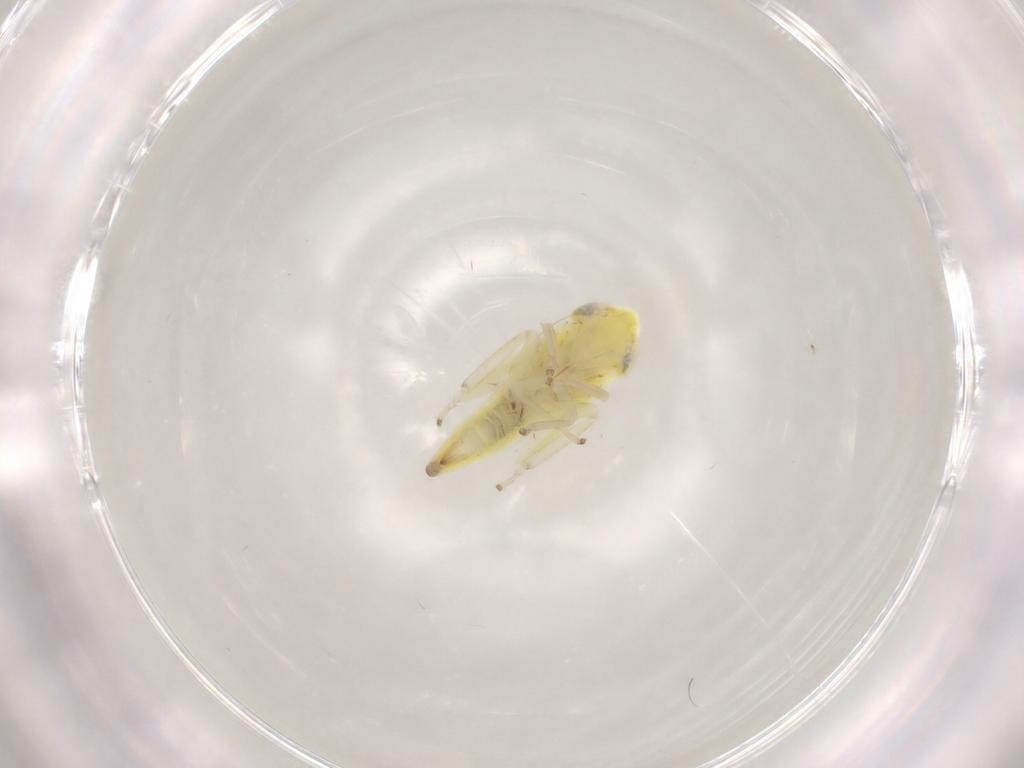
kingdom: Animalia
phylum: Arthropoda
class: Insecta
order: Hemiptera
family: Cicadellidae
